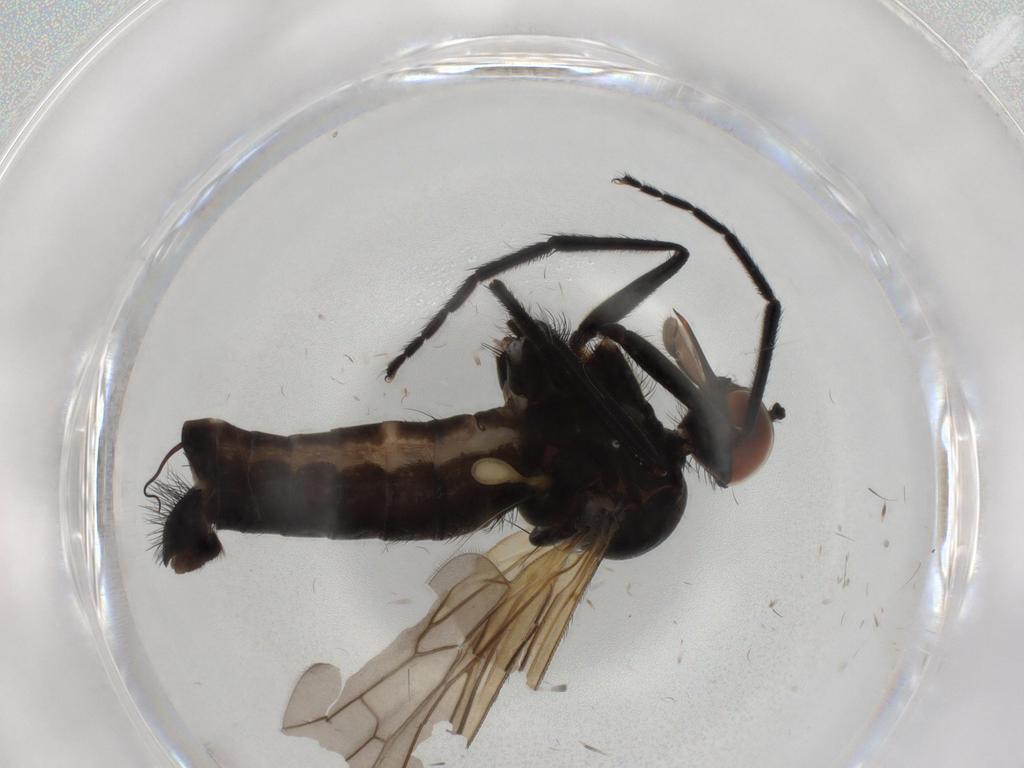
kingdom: Animalia
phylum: Arthropoda
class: Insecta
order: Diptera
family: Empididae
